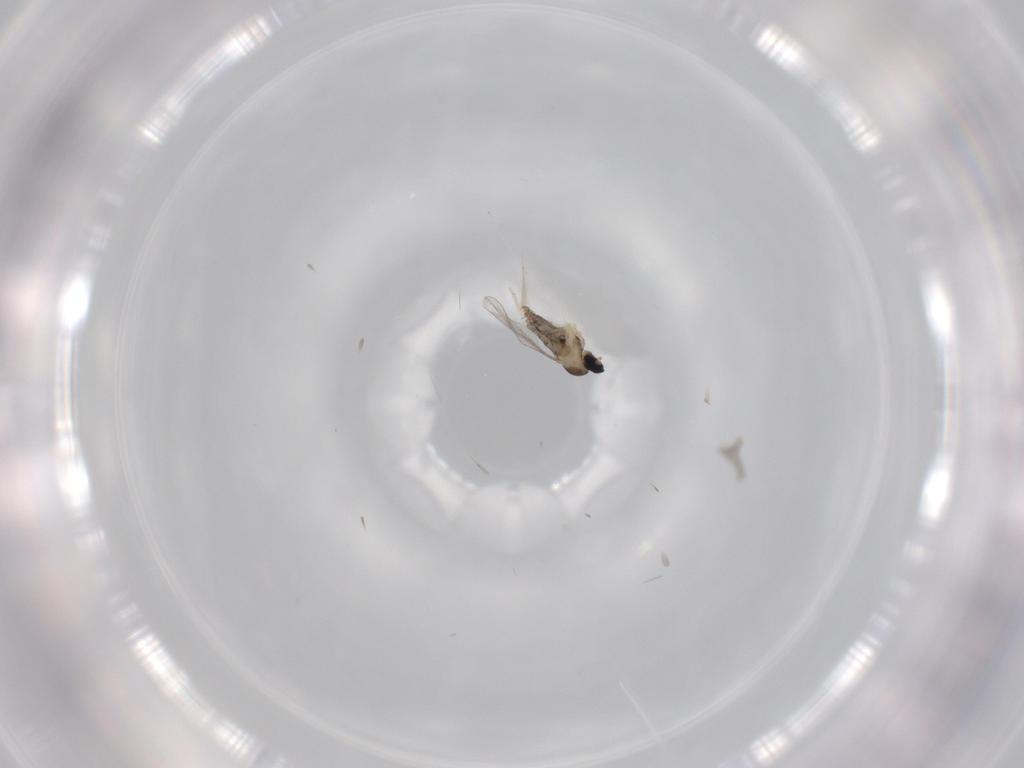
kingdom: Animalia
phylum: Arthropoda
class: Insecta
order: Diptera
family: Cecidomyiidae
